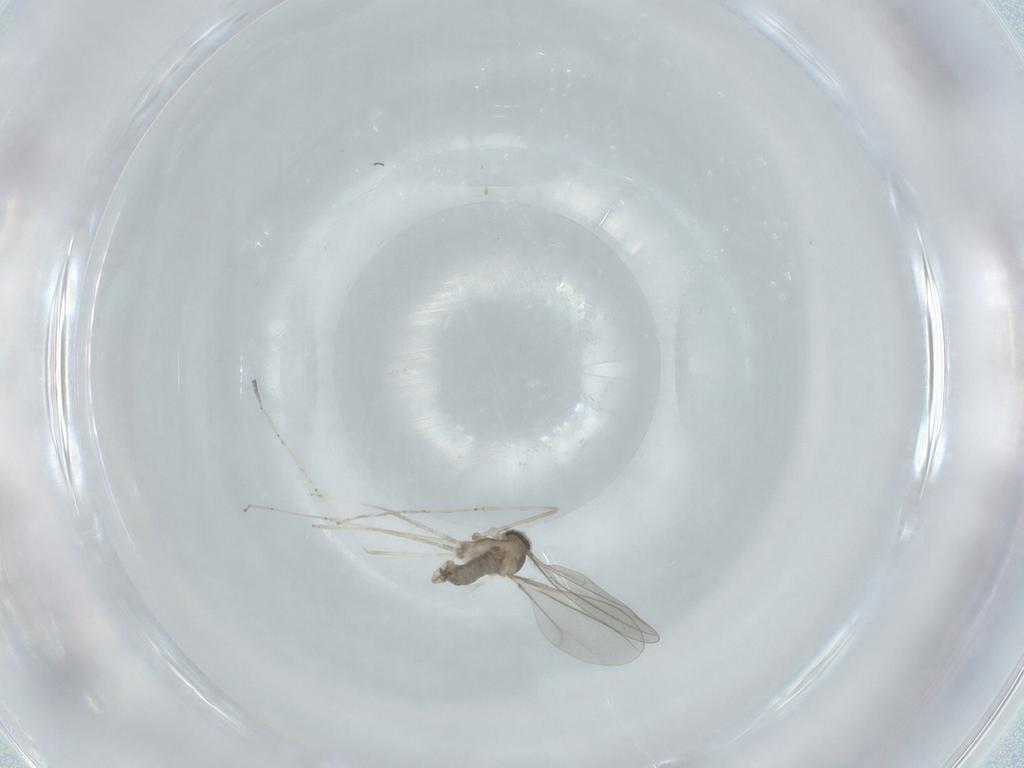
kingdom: Animalia
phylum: Arthropoda
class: Insecta
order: Diptera
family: Cecidomyiidae
